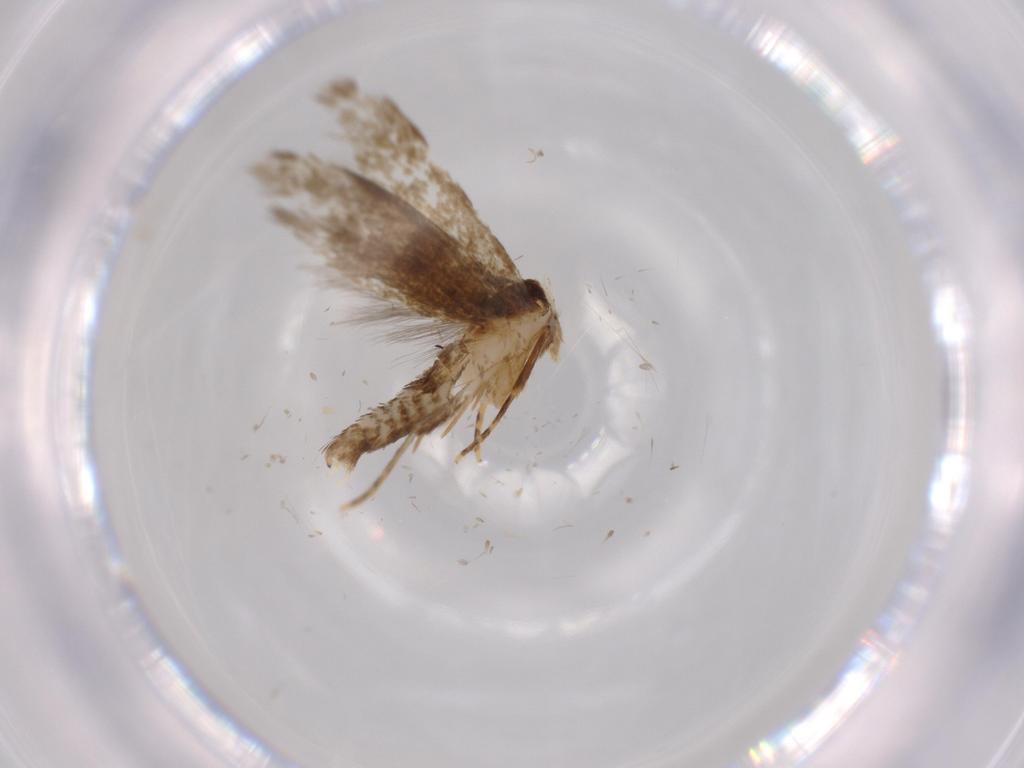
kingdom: Animalia
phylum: Arthropoda
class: Insecta
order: Lepidoptera
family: Tineidae
